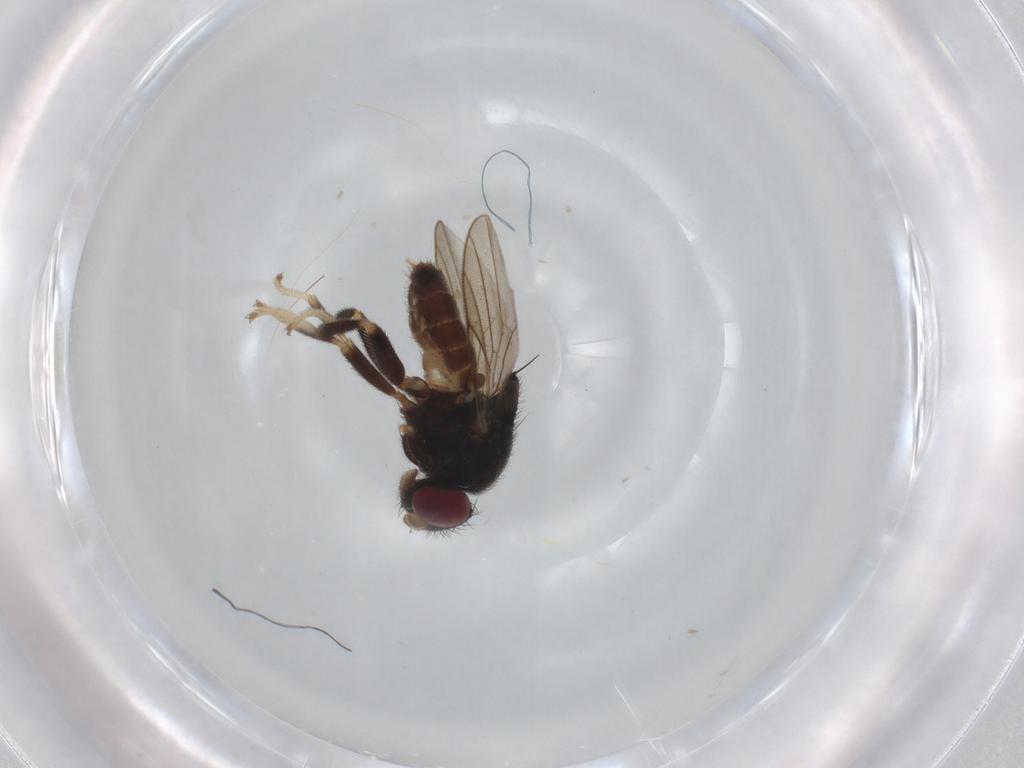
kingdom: Animalia
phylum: Arthropoda
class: Insecta
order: Diptera
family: Chloropidae
